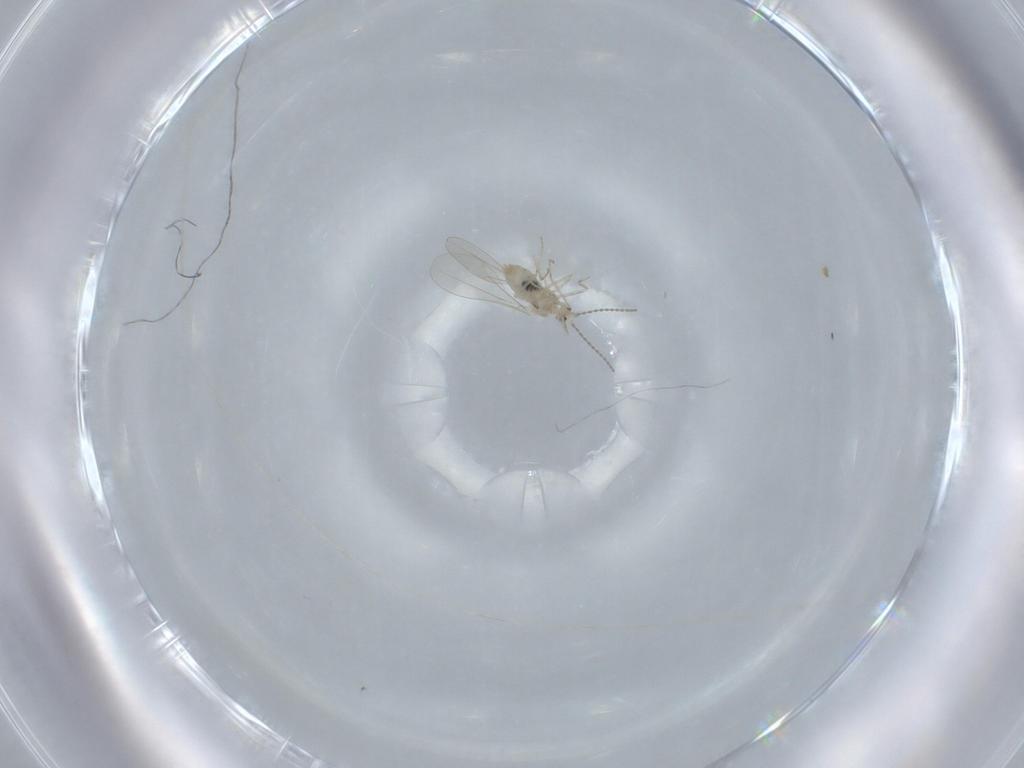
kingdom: Animalia
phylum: Arthropoda
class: Insecta
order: Diptera
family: Cecidomyiidae
